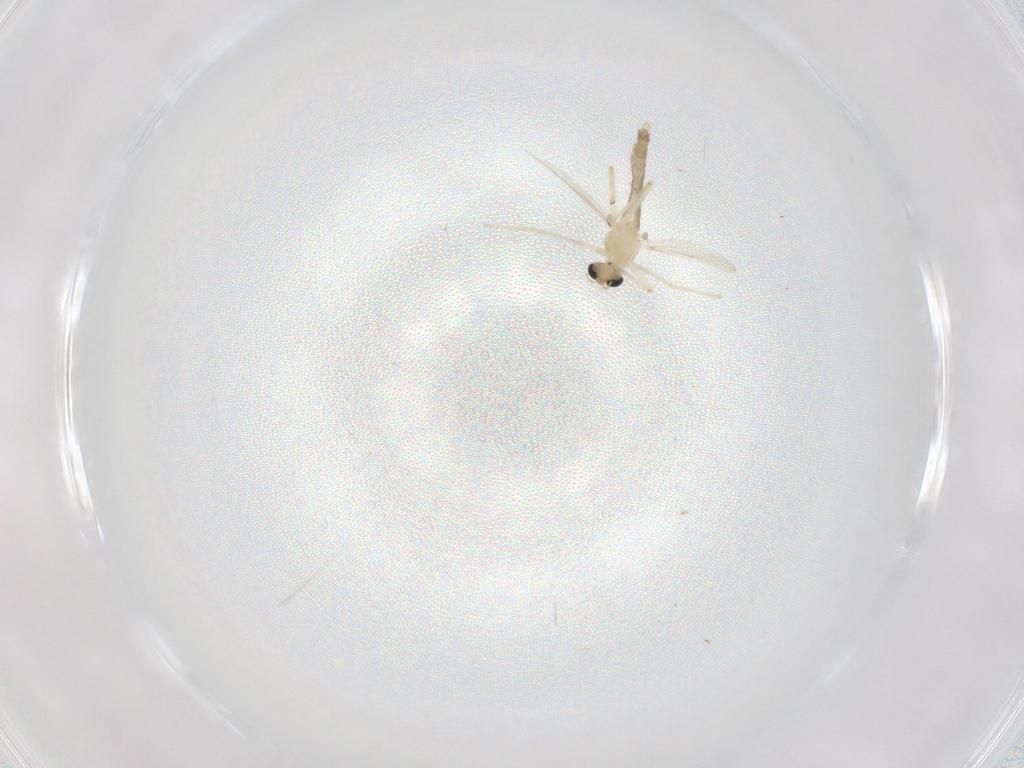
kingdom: Animalia
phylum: Arthropoda
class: Insecta
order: Diptera
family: Chironomidae
